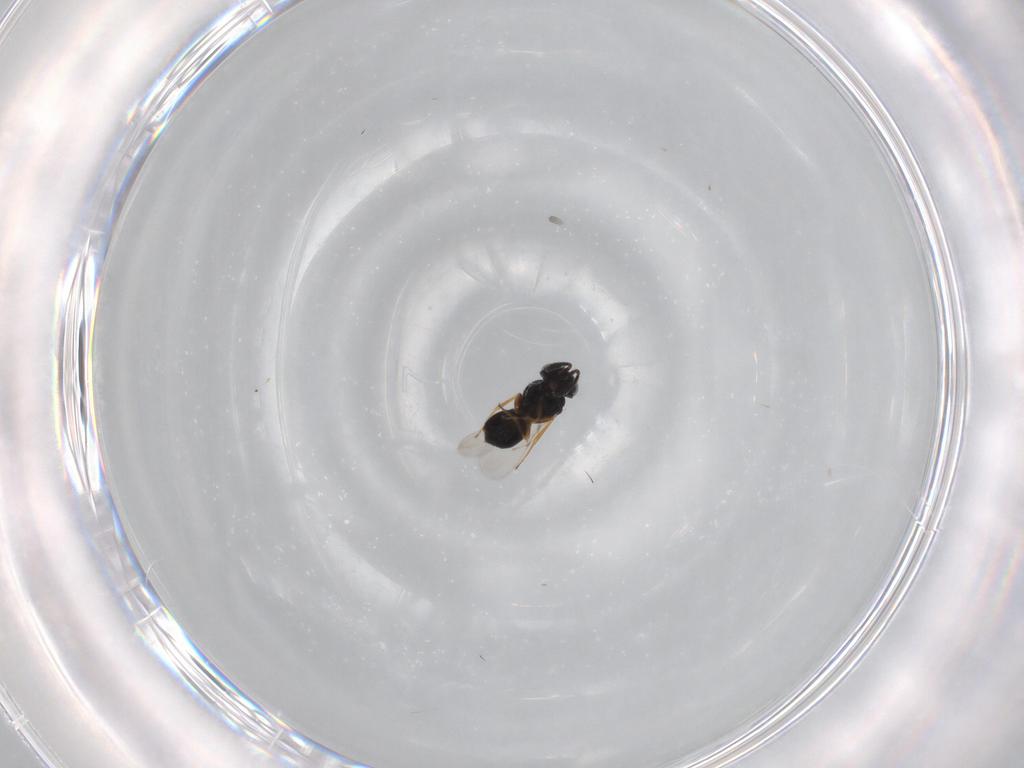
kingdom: Animalia
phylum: Arthropoda
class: Insecta
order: Hymenoptera
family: Scelionidae
